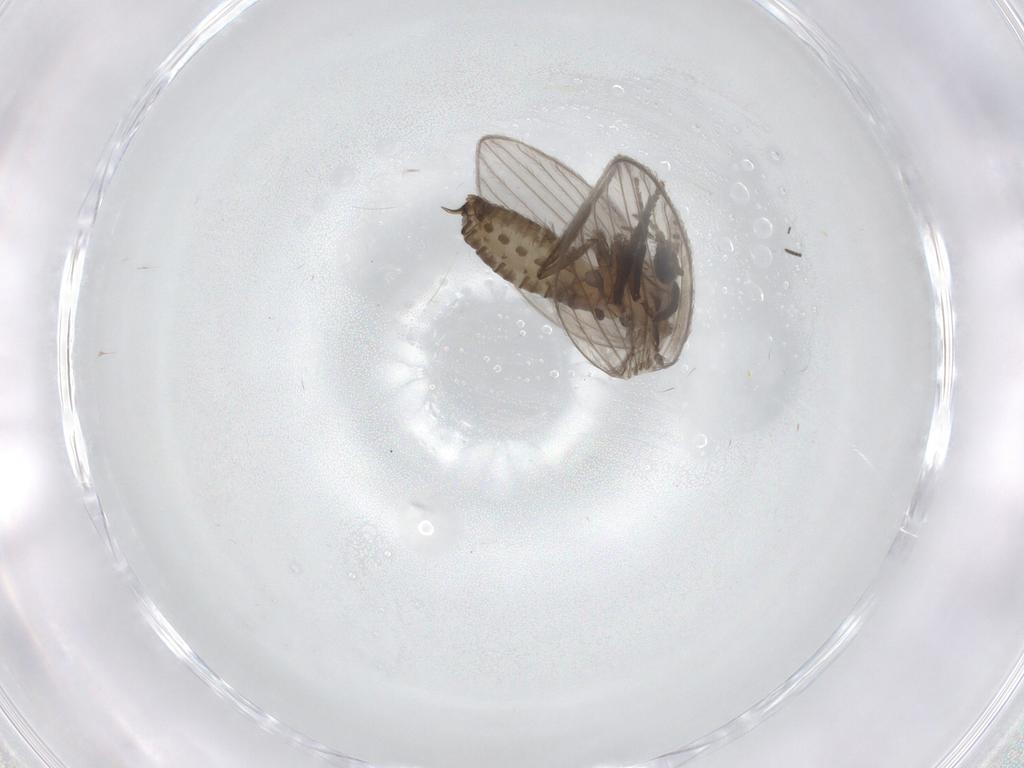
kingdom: Animalia
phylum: Arthropoda
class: Insecta
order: Diptera
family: Psychodidae
